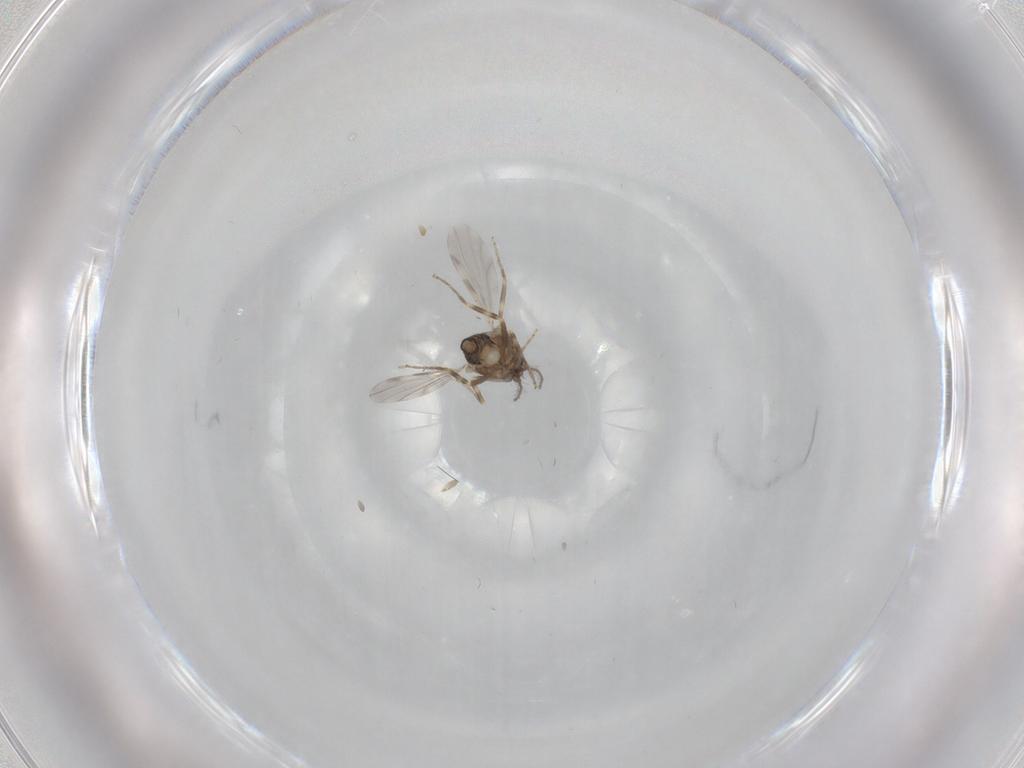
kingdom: Animalia
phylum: Arthropoda
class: Insecta
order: Diptera
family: Ceratopogonidae
